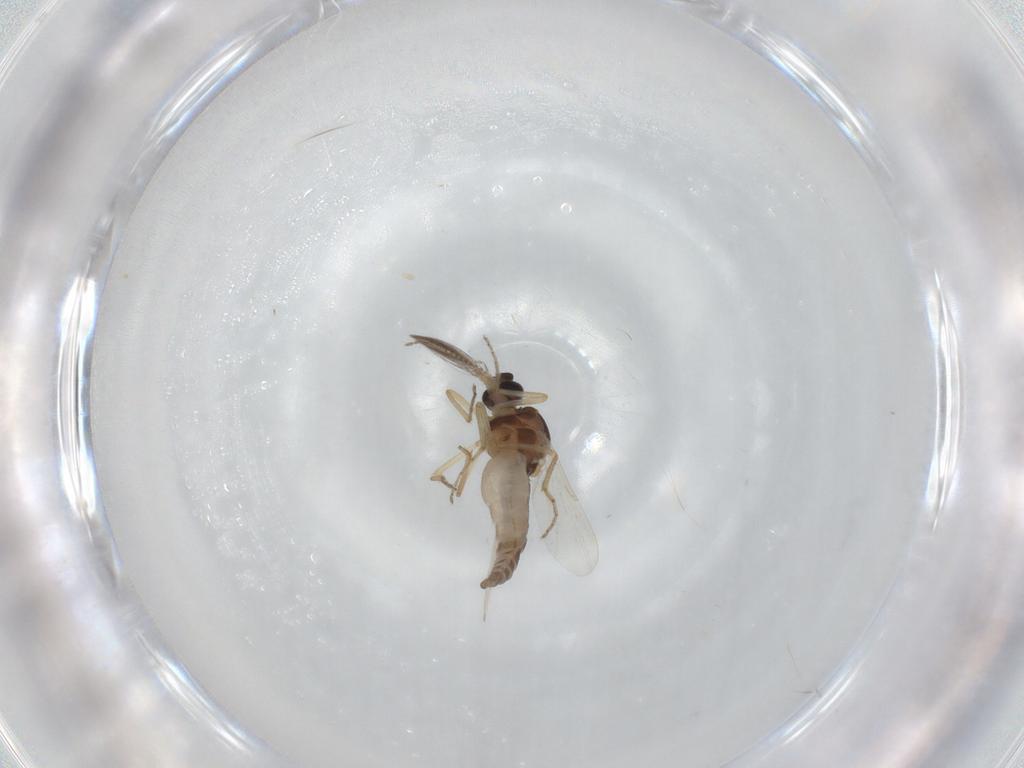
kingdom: Animalia
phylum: Arthropoda
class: Insecta
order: Diptera
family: Ceratopogonidae
